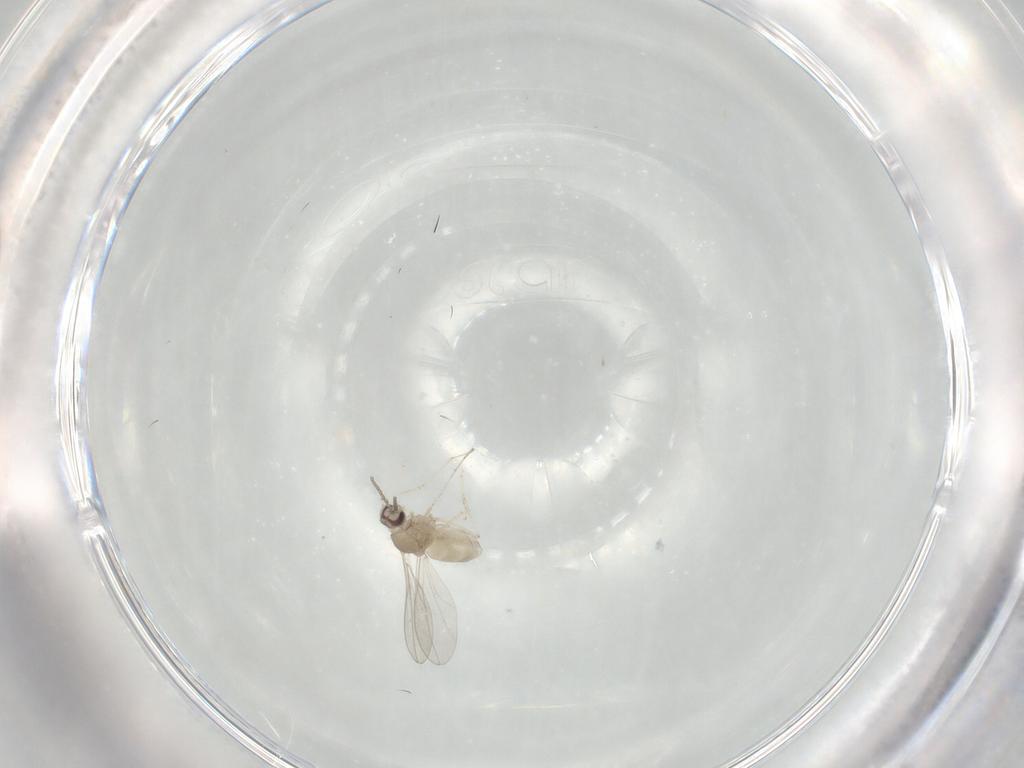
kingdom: Animalia
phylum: Arthropoda
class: Insecta
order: Diptera
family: Cecidomyiidae
